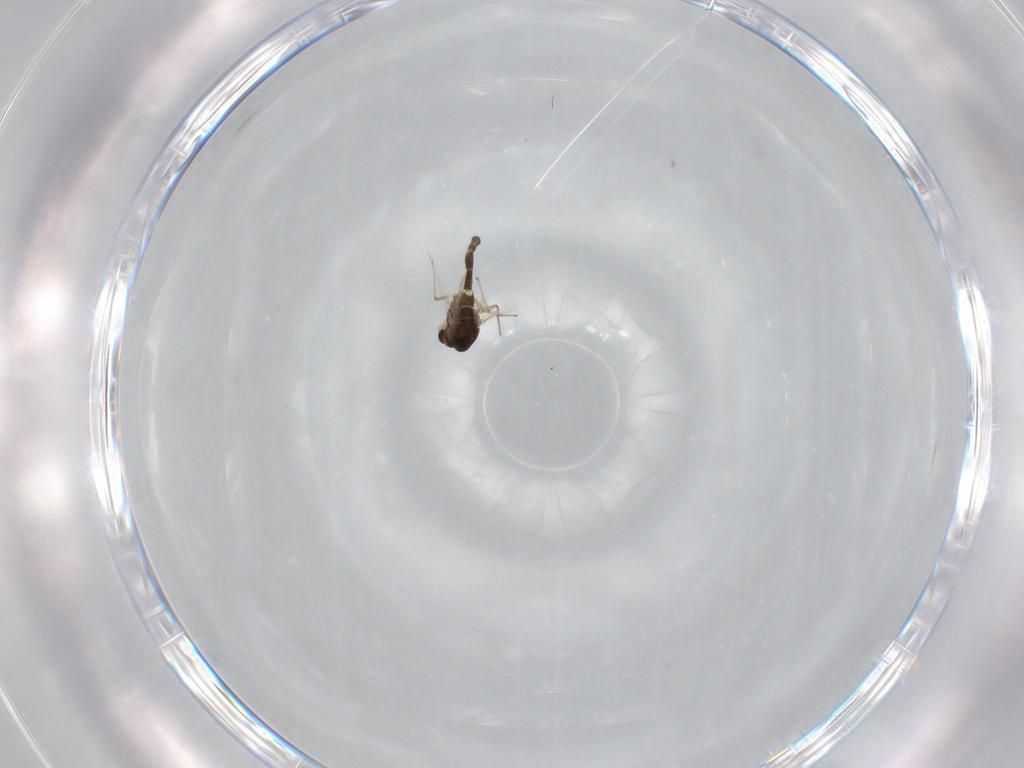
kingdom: Animalia
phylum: Arthropoda
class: Insecta
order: Diptera
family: Chironomidae
